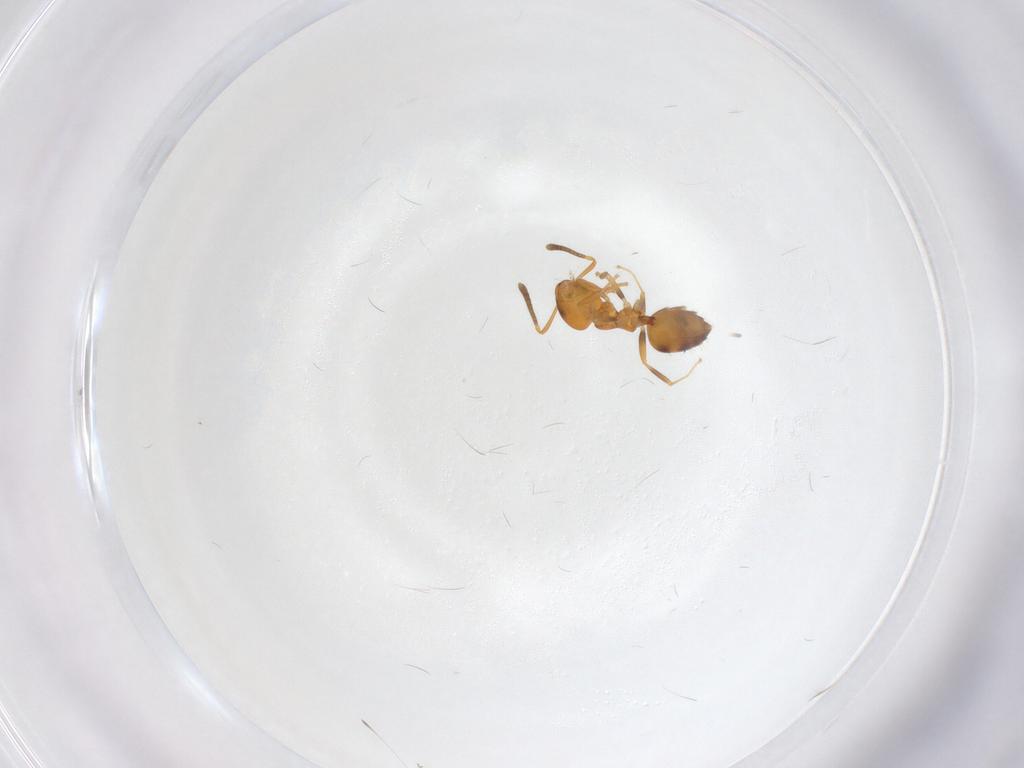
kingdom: Animalia
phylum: Arthropoda
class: Insecta
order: Hymenoptera
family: Formicidae
